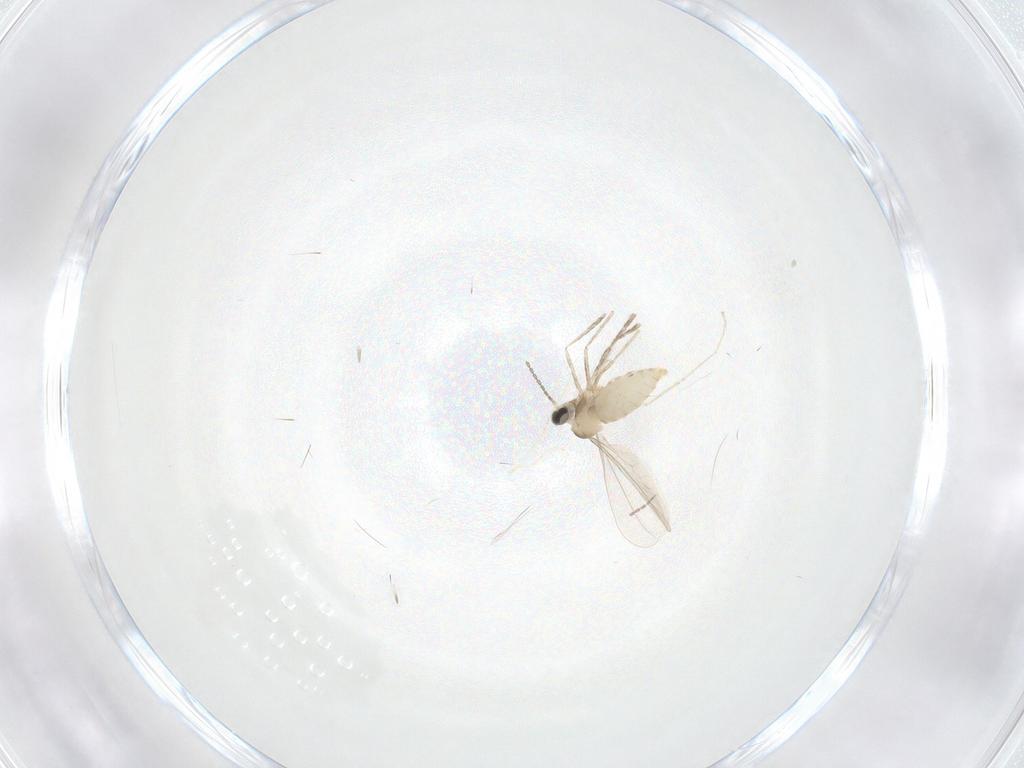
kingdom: Animalia
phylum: Arthropoda
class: Insecta
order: Diptera
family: Cecidomyiidae
